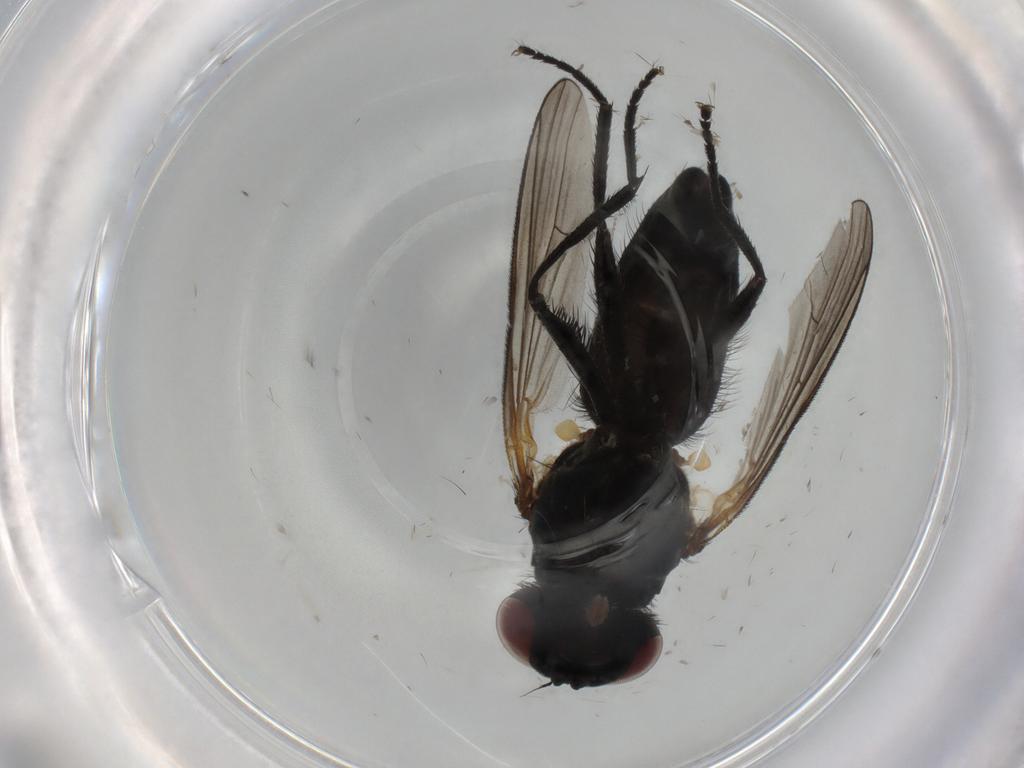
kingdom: Animalia
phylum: Arthropoda
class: Insecta
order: Diptera
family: Fannia
